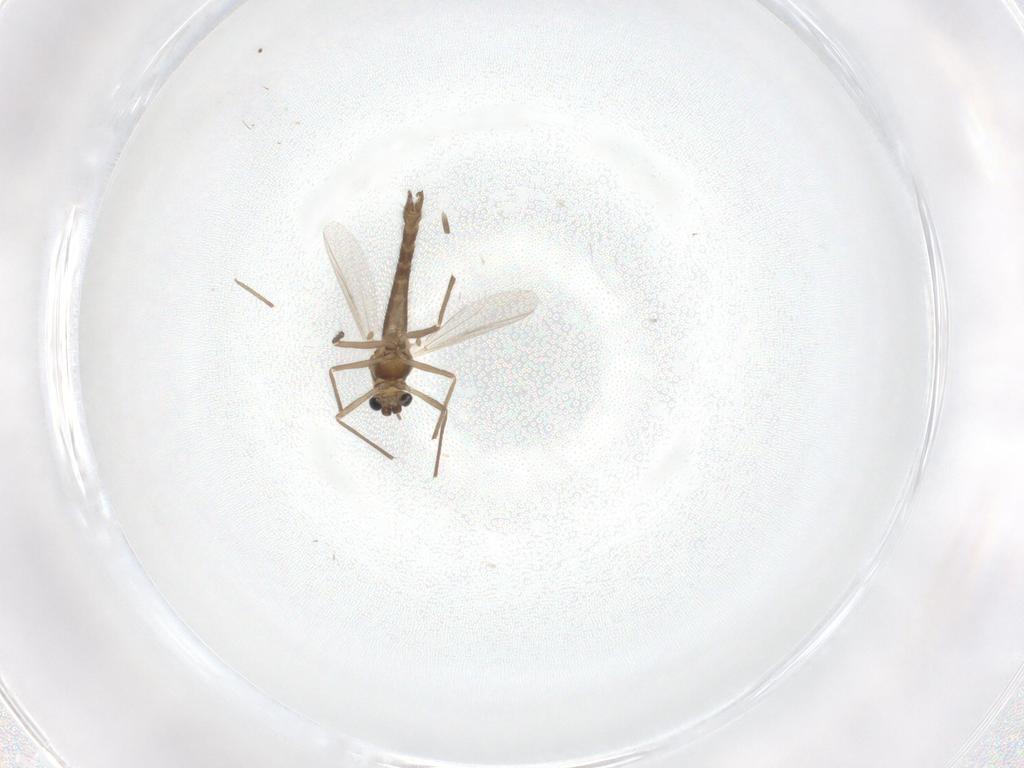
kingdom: Animalia
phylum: Arthropoda
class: Insecta
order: Diptera
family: Chironomidae
